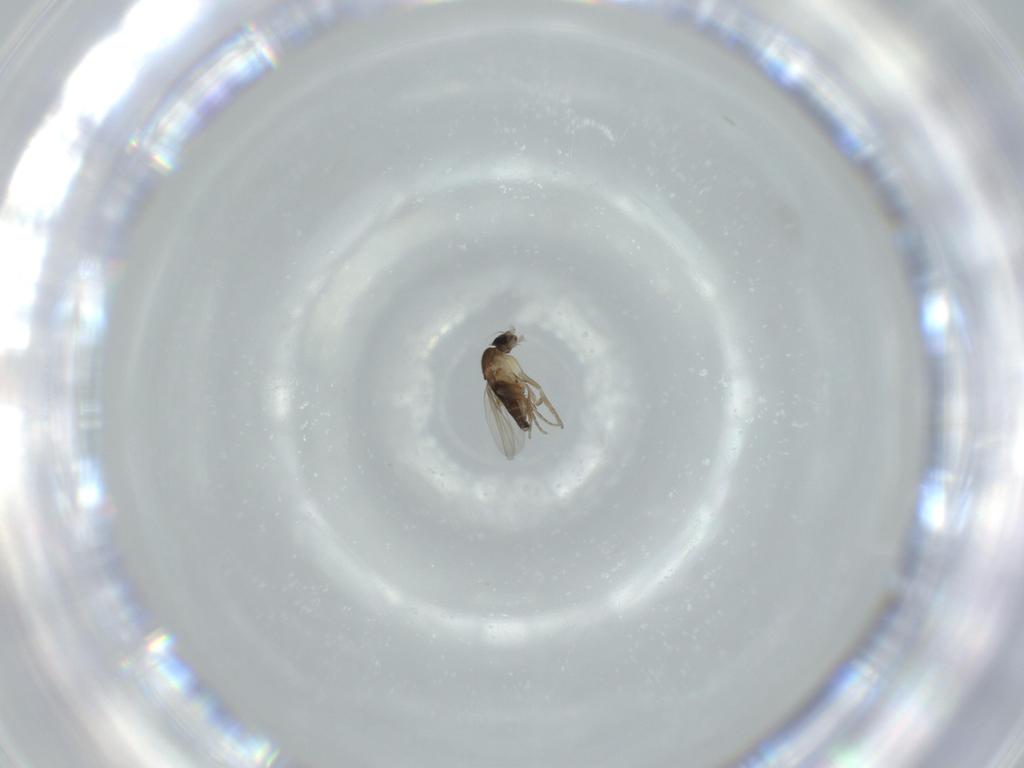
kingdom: Animalia
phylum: Arthropoda
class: Insecta
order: Diptera
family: Phoridae
